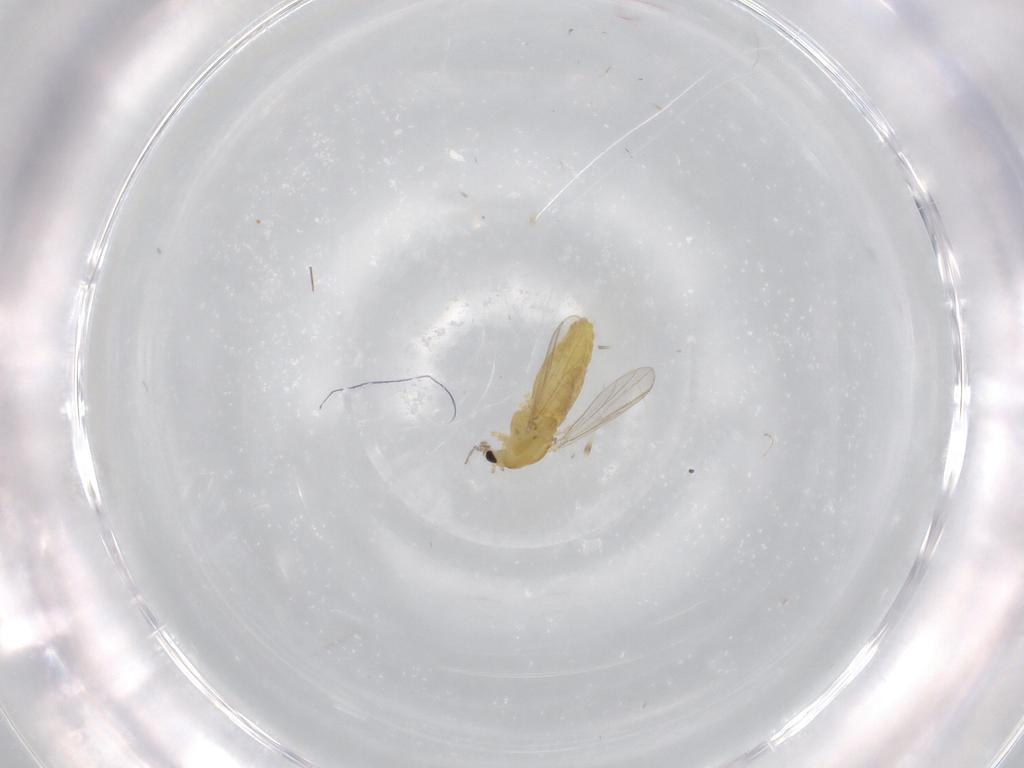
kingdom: Animalia
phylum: Arthropoda
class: Insecta
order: Diptera
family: Chironomidae
